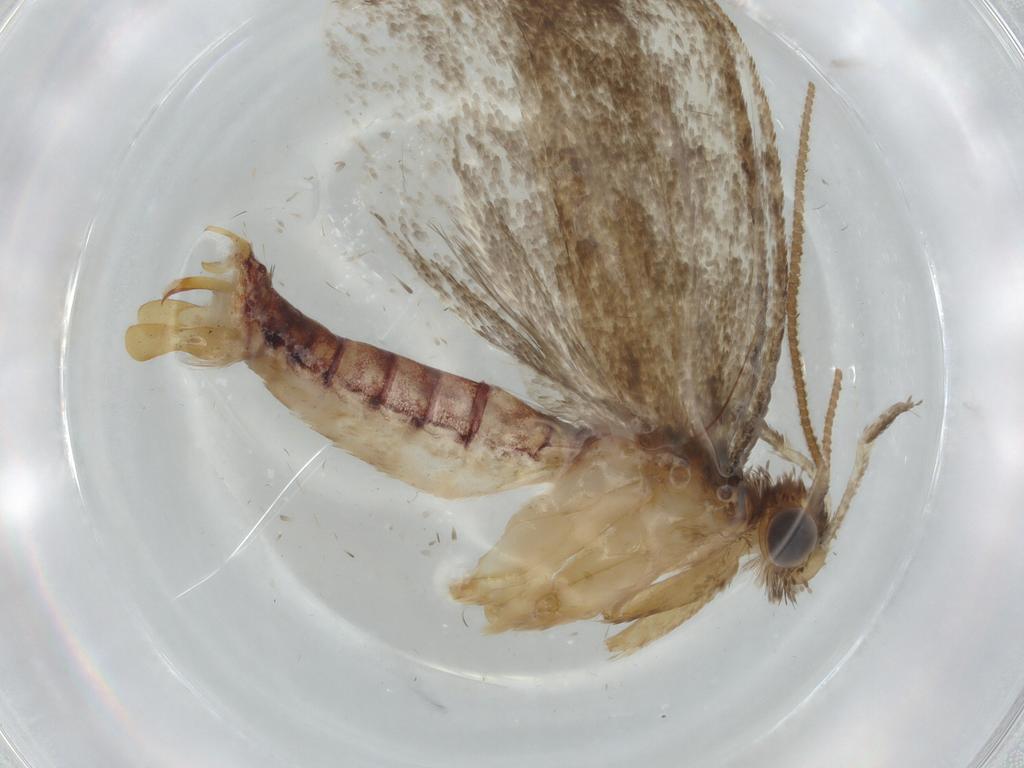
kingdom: Animalia
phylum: Arthropoda
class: Insecta
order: Lepidoptera
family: Tineidae
